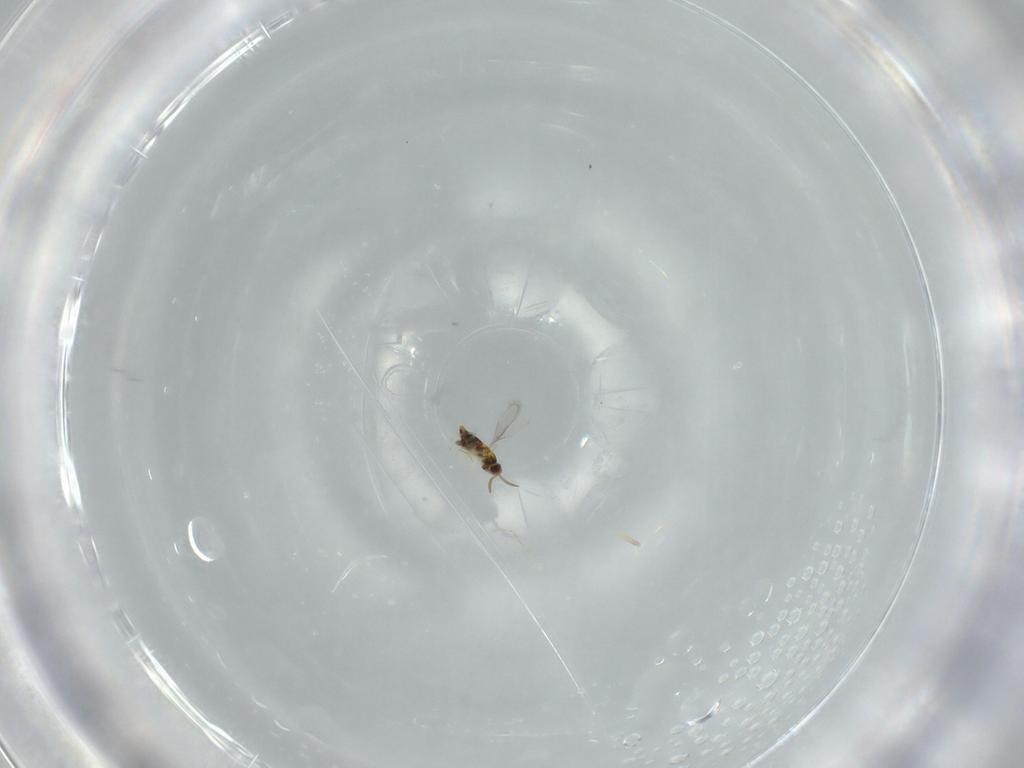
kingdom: Animalia
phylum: Arthropoda
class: Insecta
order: Hymenoptera
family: Aphelinidae
